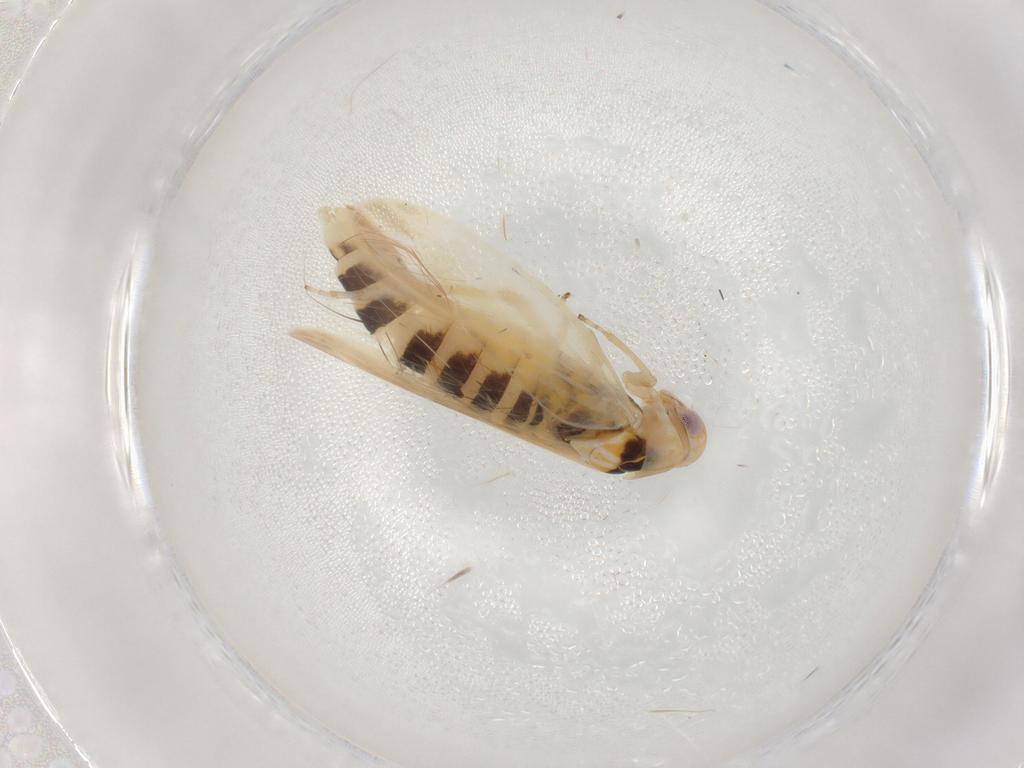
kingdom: Animalia
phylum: Arthropoda
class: Insecta
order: Hemiptera
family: Cicadellidae
